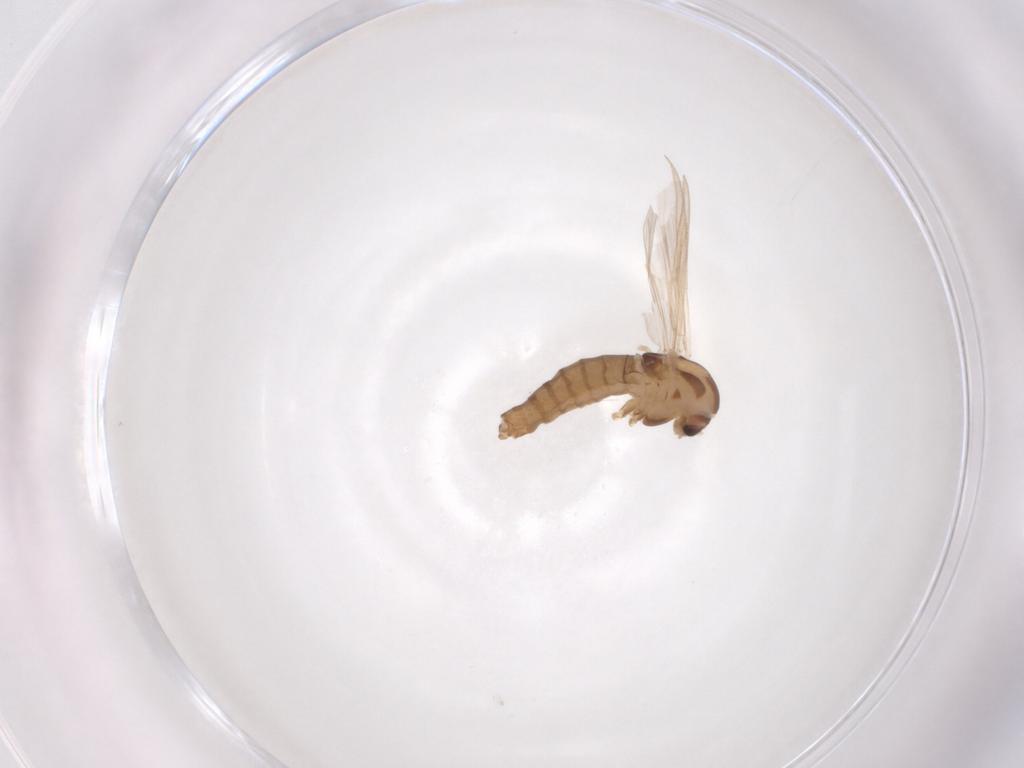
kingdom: Animalia
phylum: Arthropoda
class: Insecta
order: Diptera
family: Chironomidae
